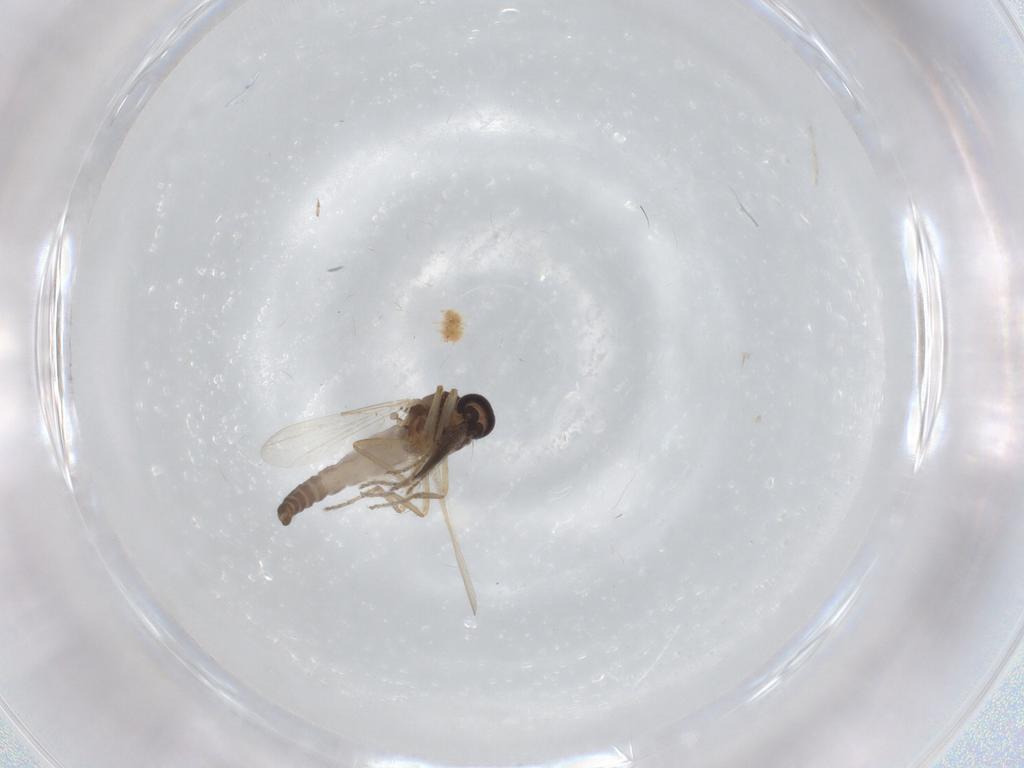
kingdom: Animalia
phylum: Arthropoda
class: Insecta
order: Diptera
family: Ceratopogonidae
